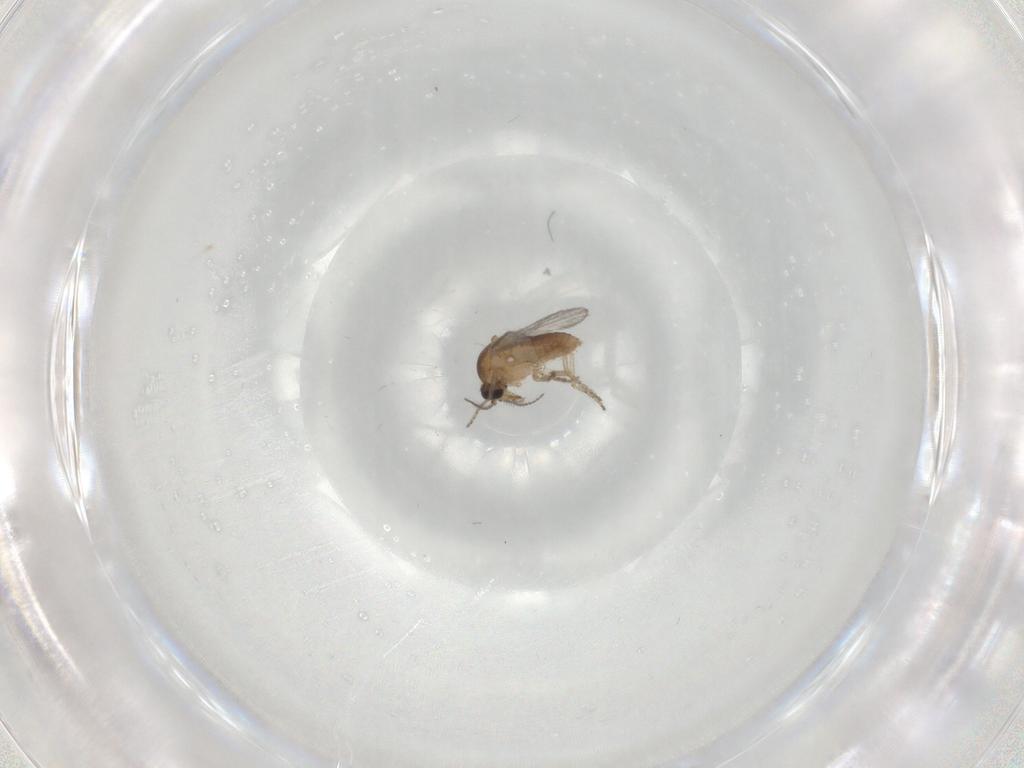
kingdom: Animalia
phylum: Arthropoda
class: Insecta
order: Diptera
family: Ceratopogonidae
